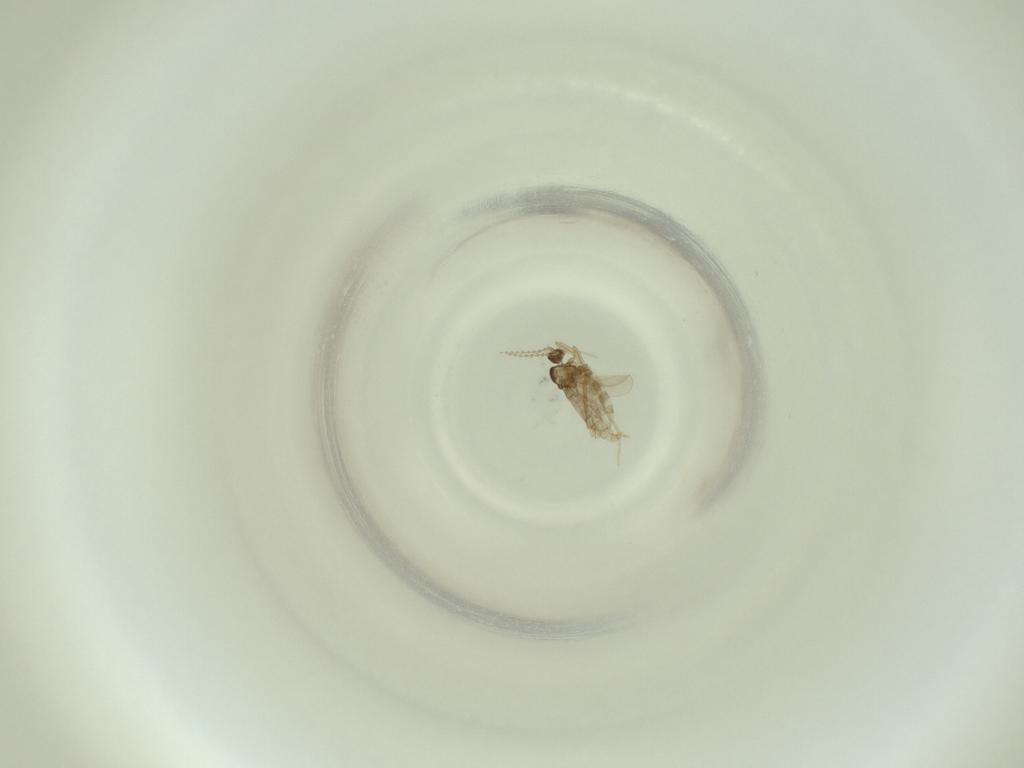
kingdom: Animalia
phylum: Arthropoda
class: Insecta
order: Diptera
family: Cecidomyiidae
